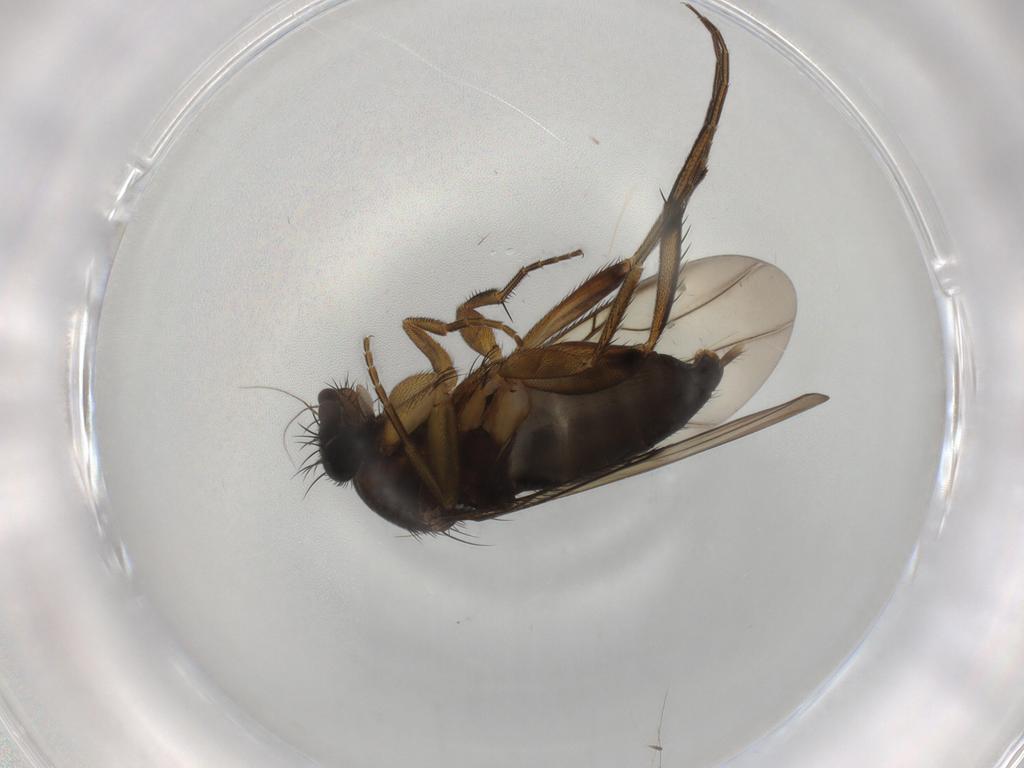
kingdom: Animalia
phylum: Arthropoda
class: Insecta
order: Diptera
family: Phoridae
